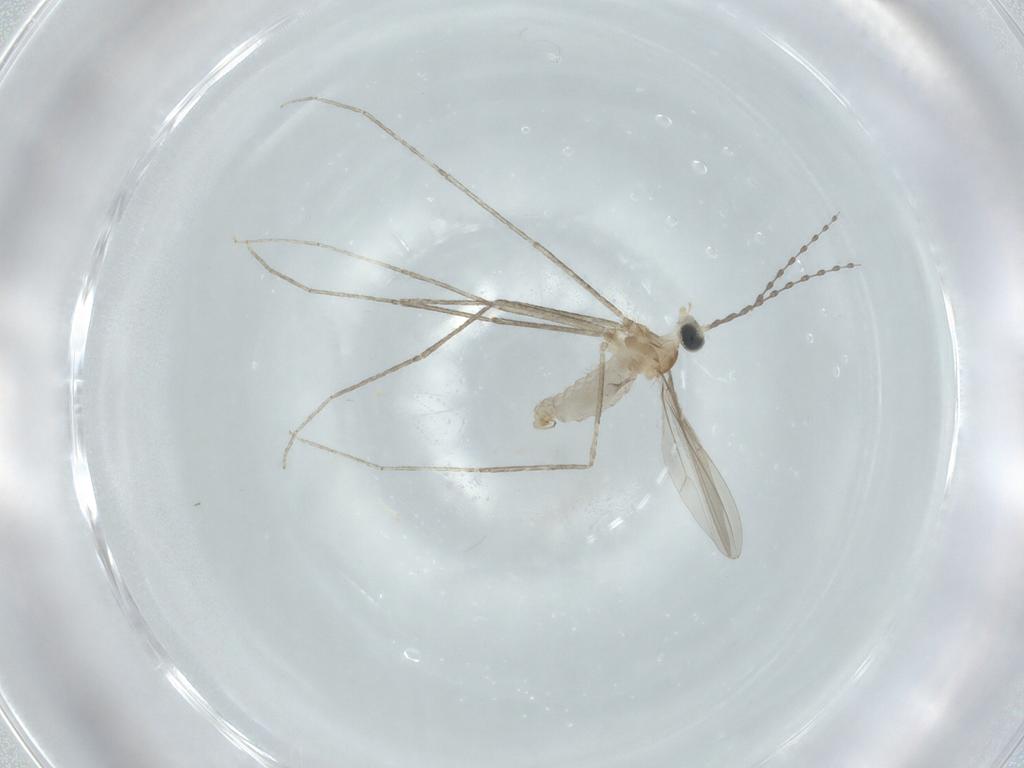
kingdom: Animalia
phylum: Arthropoda
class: Insecta
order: Diptera
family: Cecidomyiidae
